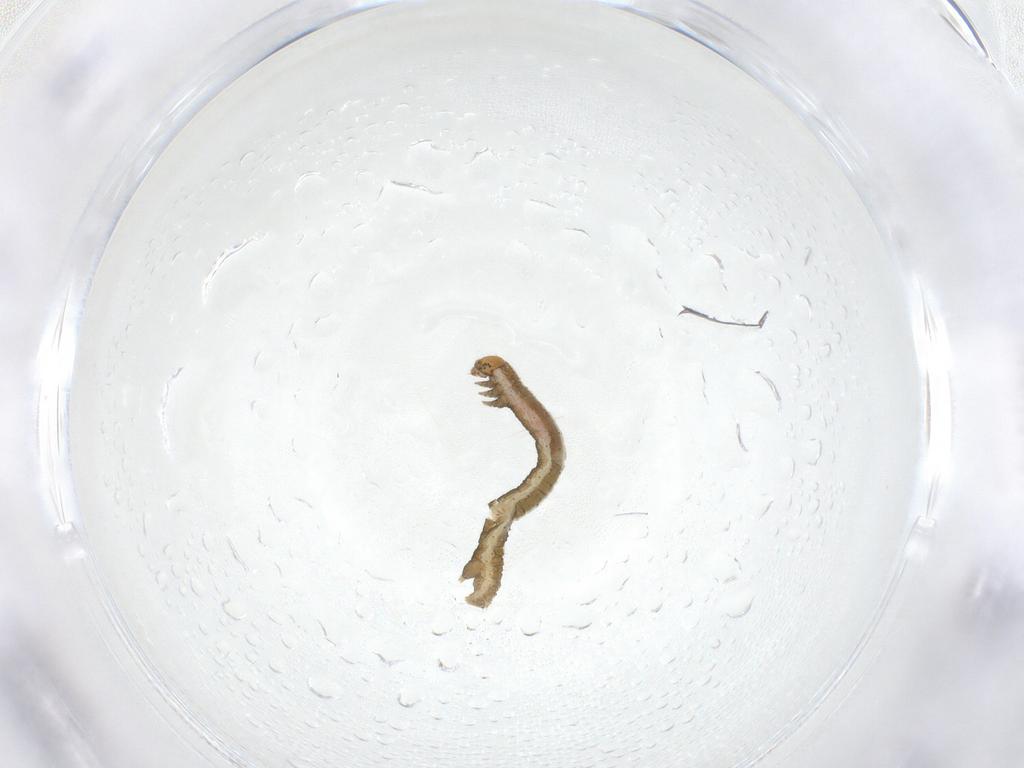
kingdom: Animalia
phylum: Arthropoda
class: Insecta
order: Lepidoptera
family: Geometridae
